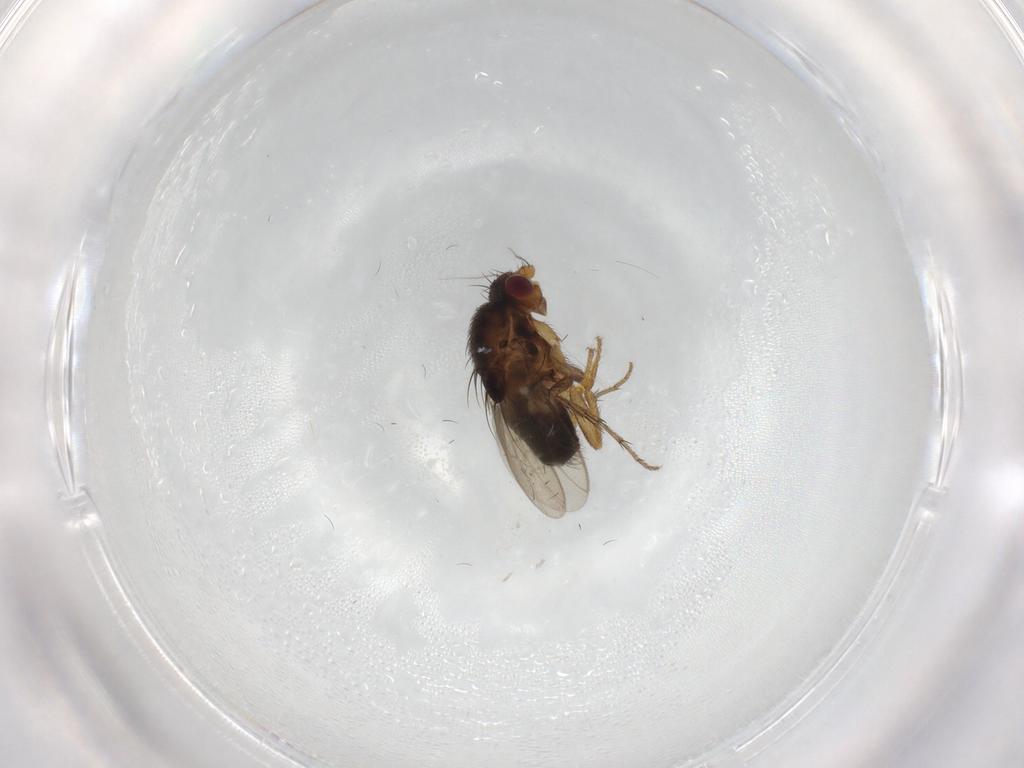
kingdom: Animalia
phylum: Arthropoda
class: Insecta
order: Diptera
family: Sphaeroceridae
